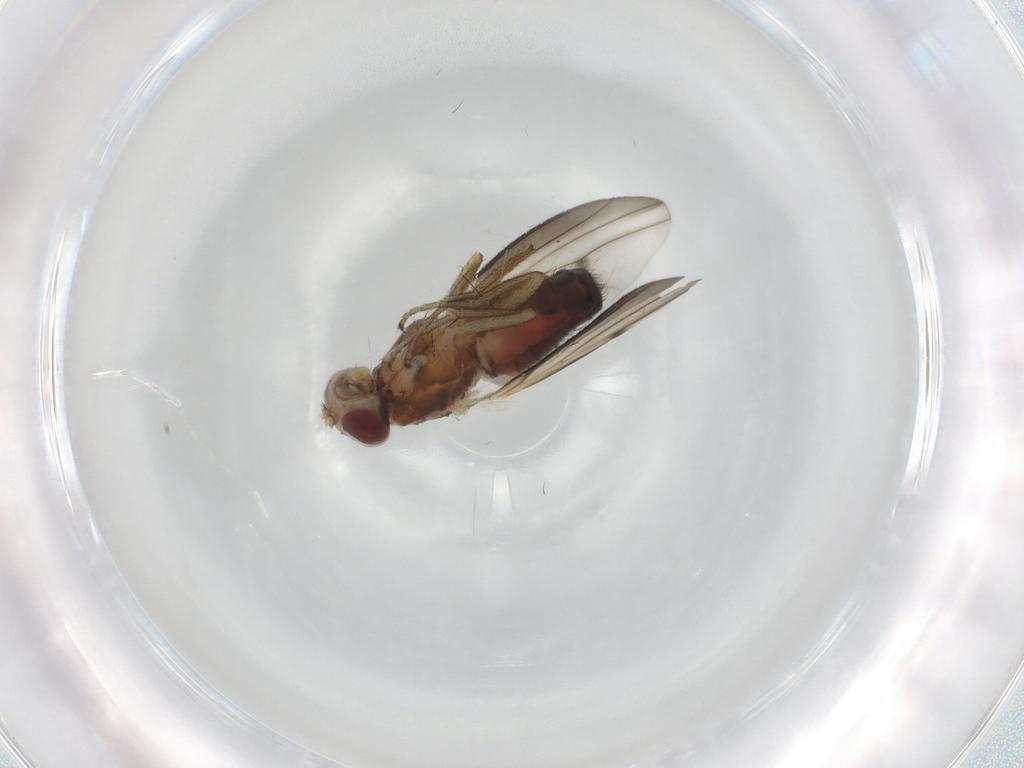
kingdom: Animalia
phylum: Arthropoda
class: Insecta
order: Diptera
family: Heleomyzidae
